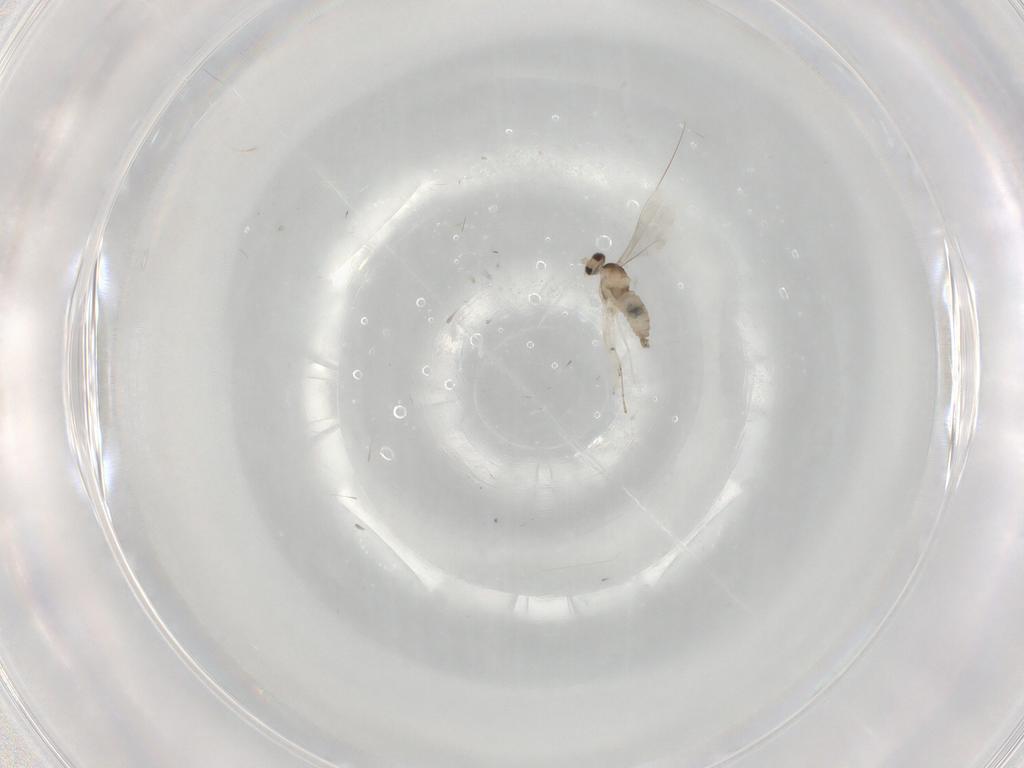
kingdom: Animalia
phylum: Arthropoda
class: Insecta
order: Diptera
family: Cecidomyiidae
